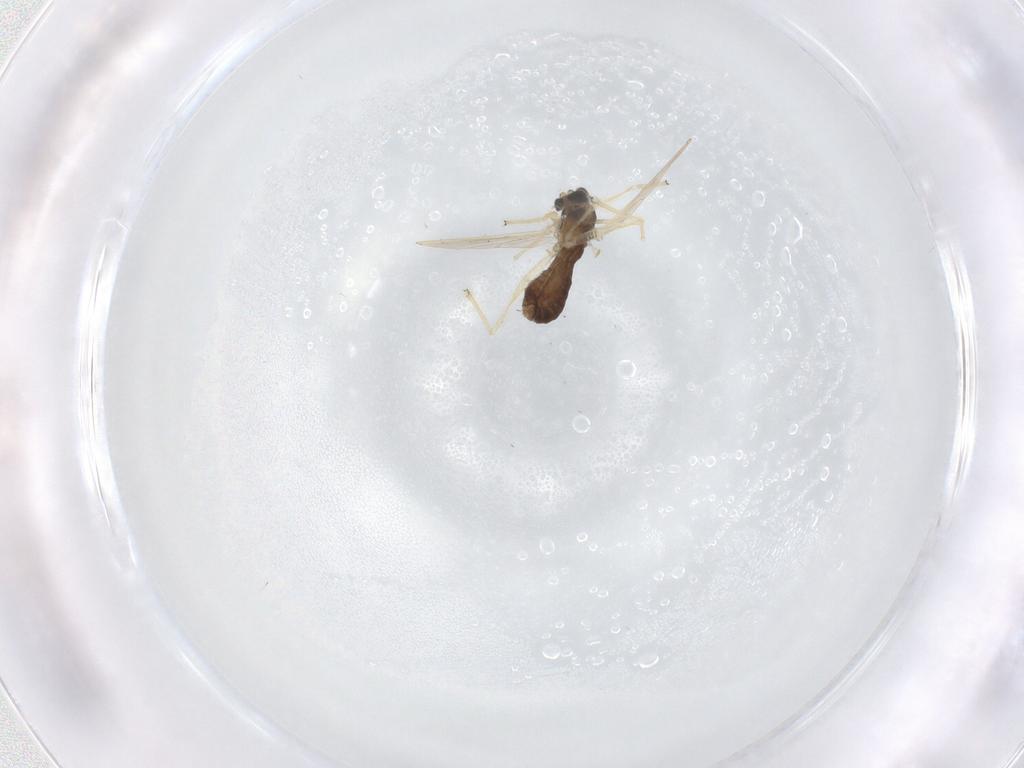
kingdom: Animalia
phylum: Arthropoda
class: Insecta
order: Diptera
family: Chironomidae
